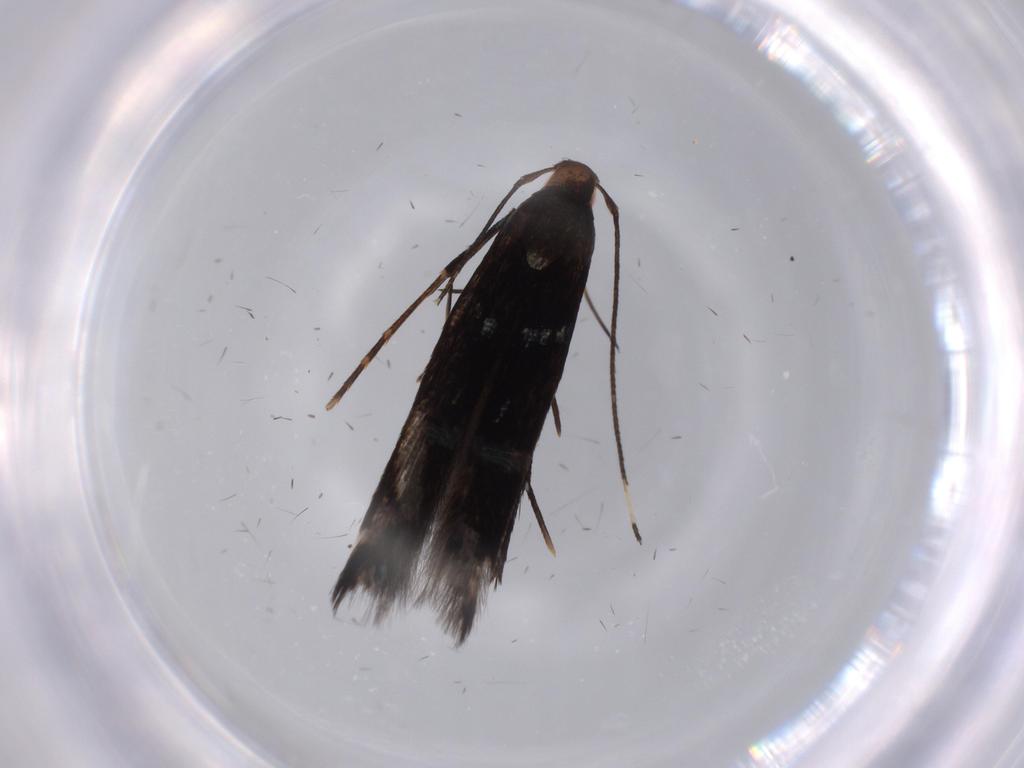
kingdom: Animalia
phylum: Arthropoda
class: Insecta
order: Lepidoptera
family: Cosmopterigidae
